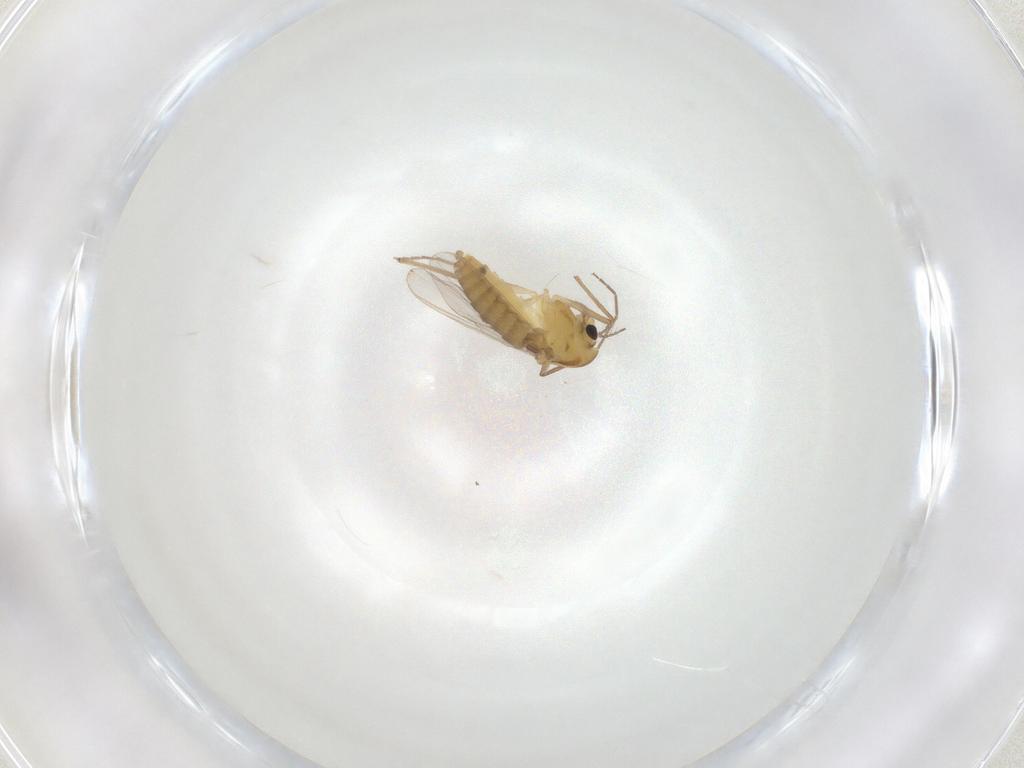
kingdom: Animalia
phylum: Arthropoda
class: Insecta
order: Diptera
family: Chironomidae
